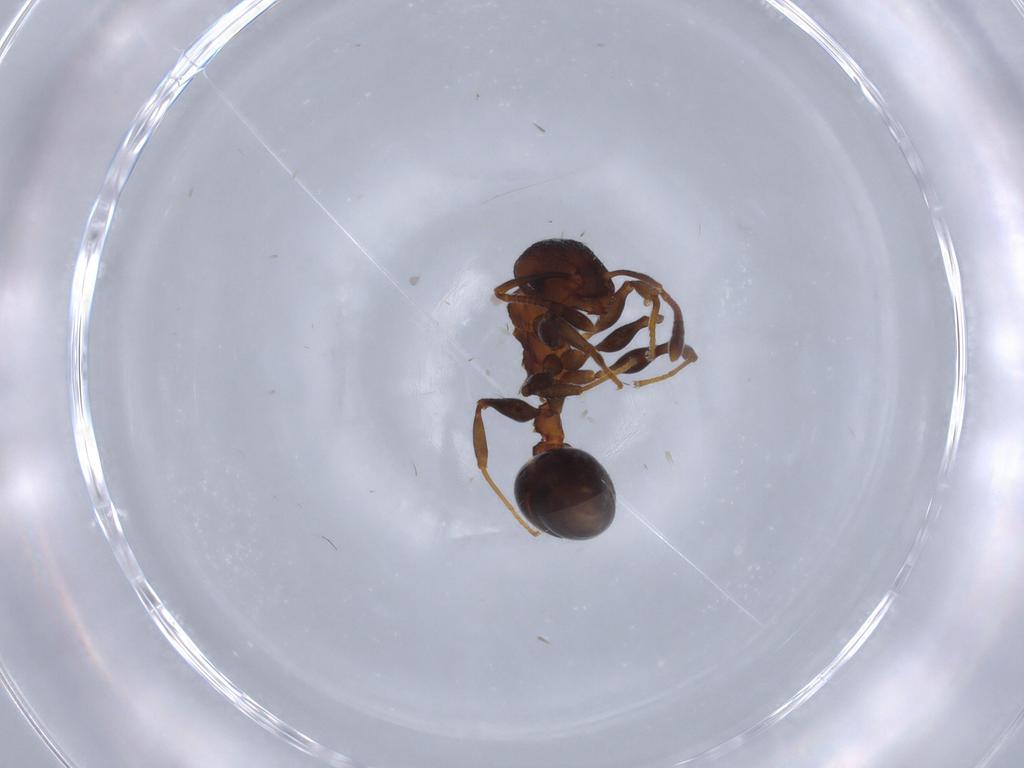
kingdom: Animalia
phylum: Arthropoda
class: Insecta
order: Hymenoptera
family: Formicidae
